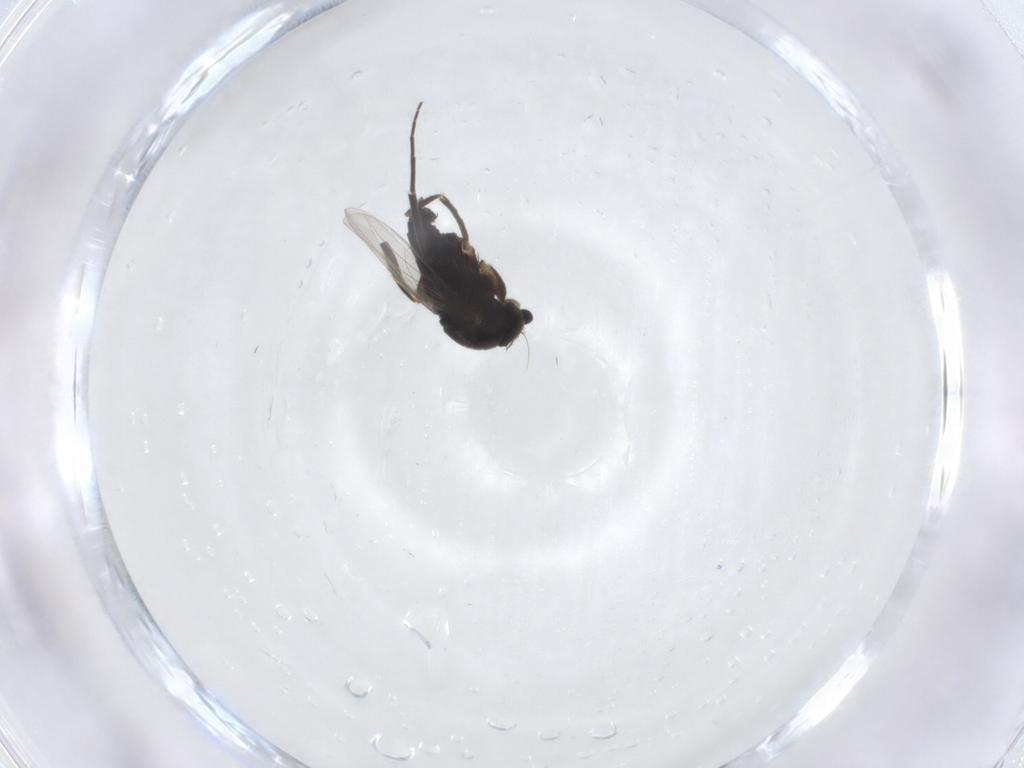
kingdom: Animalia
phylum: Arthropoda
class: Insecta
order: Diptera
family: Phoridae
